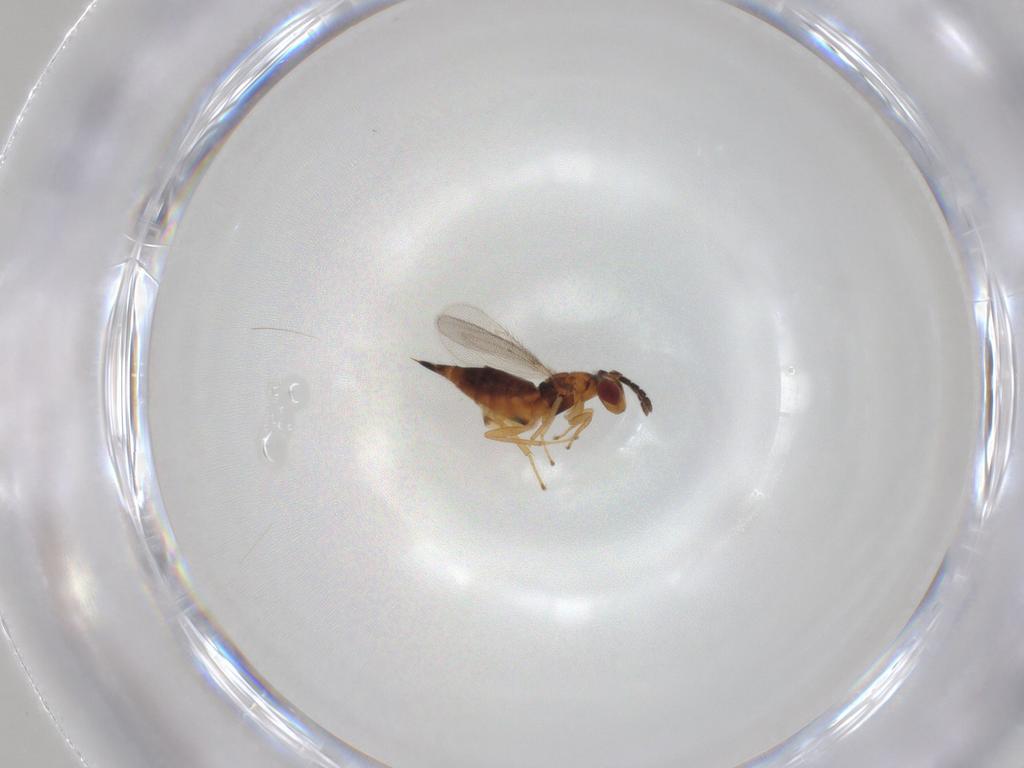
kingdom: Animalia
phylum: Arthropoda
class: Insecta
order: Hymenoptera
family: Eulophidae
